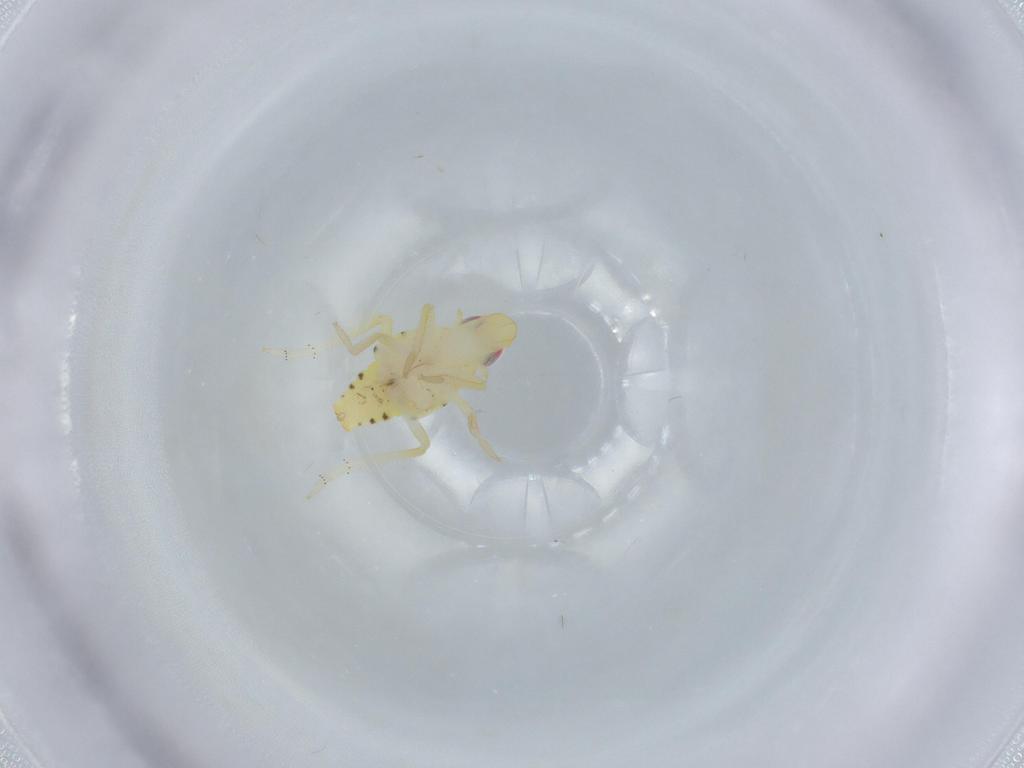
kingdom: Animalia
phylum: Arthropoda
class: Insecta
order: Hemiptera
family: Tropiduchidae
